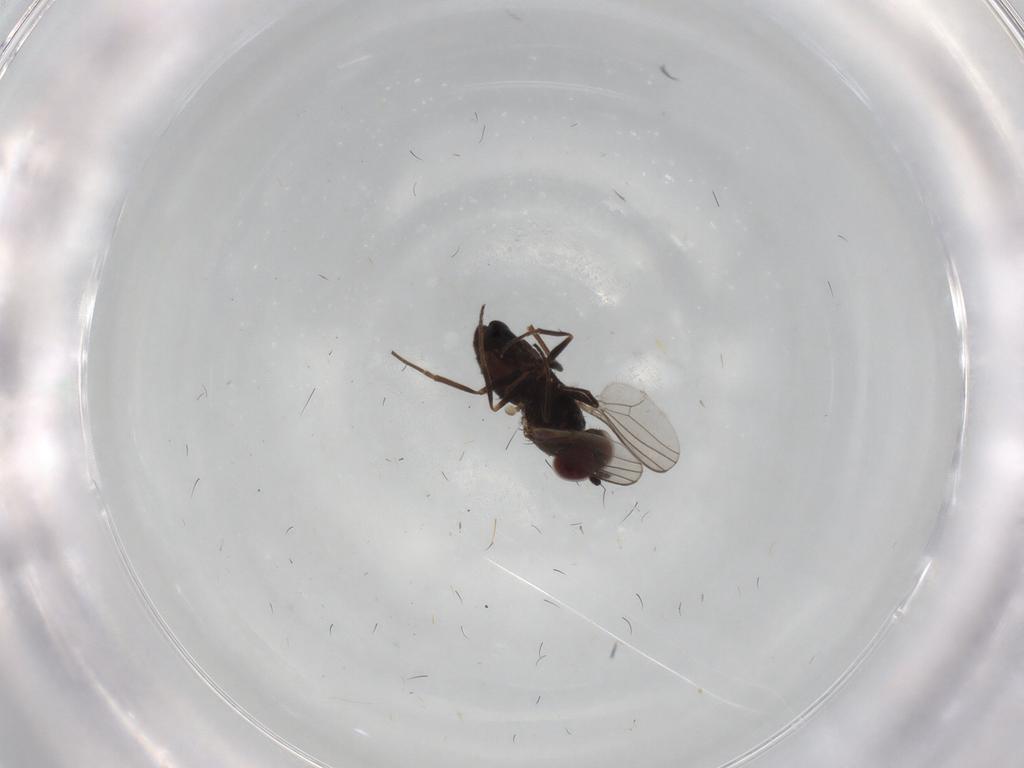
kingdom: Animalia
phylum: Arthropoda
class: Insecta
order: Diptera
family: Dolichopodidae
